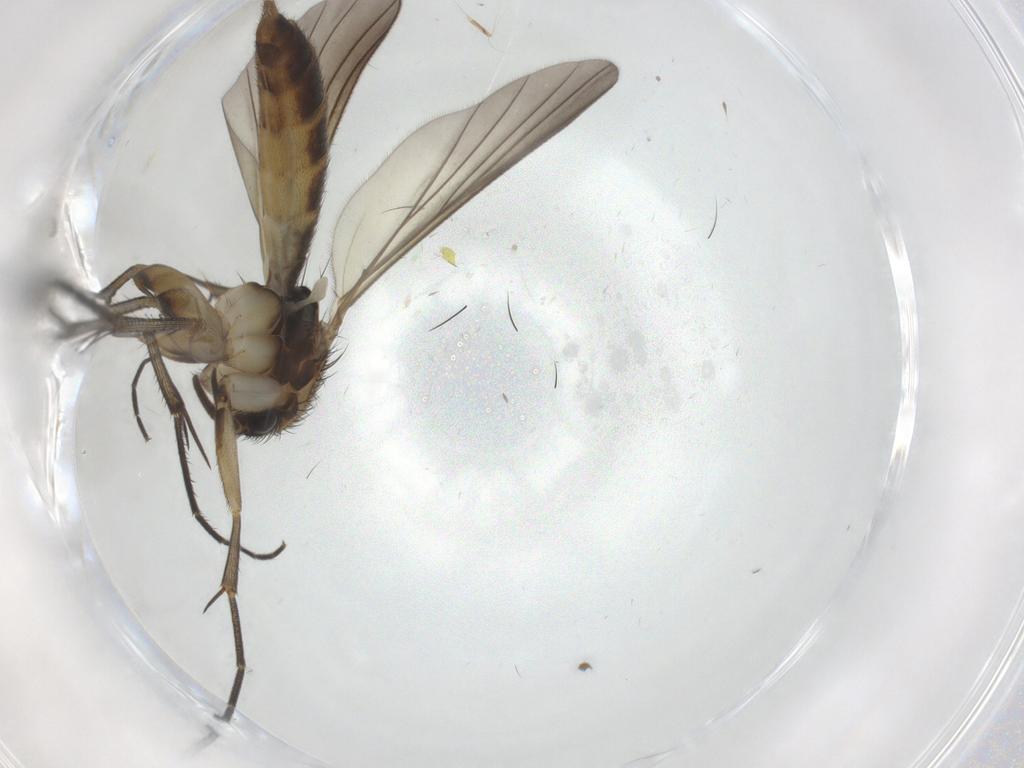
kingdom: Animalia
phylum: Arthropoda
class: Insecta
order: Diptera
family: Mycetophilidae
